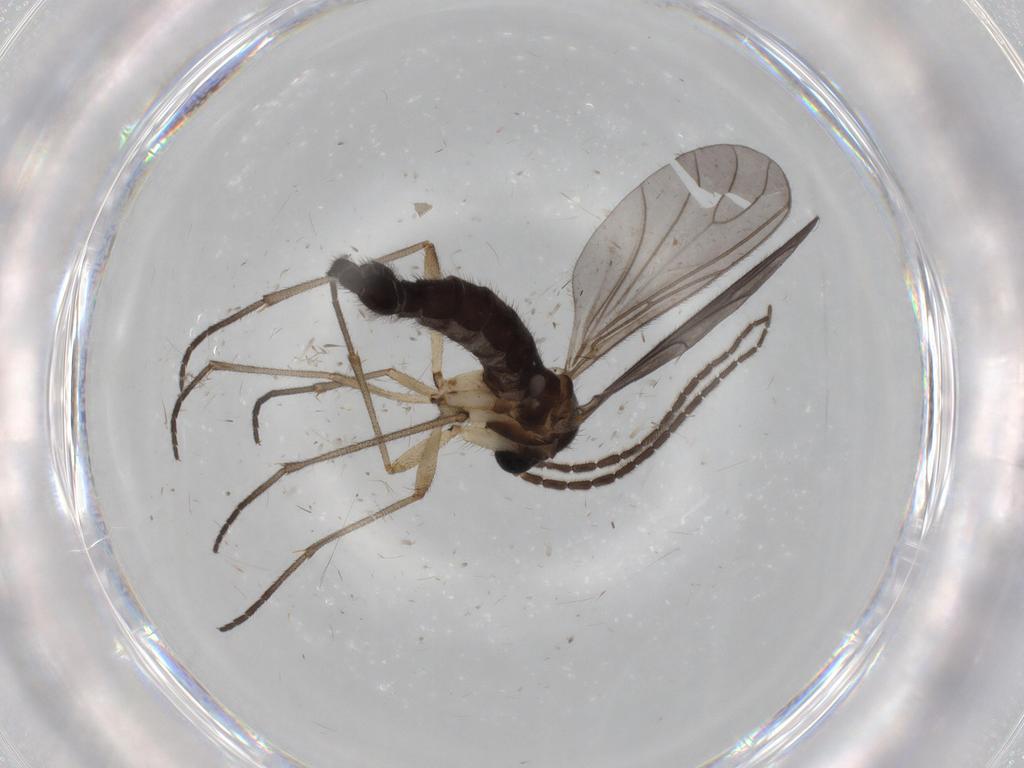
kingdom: Animalia
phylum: Arthropoda
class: Insecta
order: Diptera
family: Sciaridae
